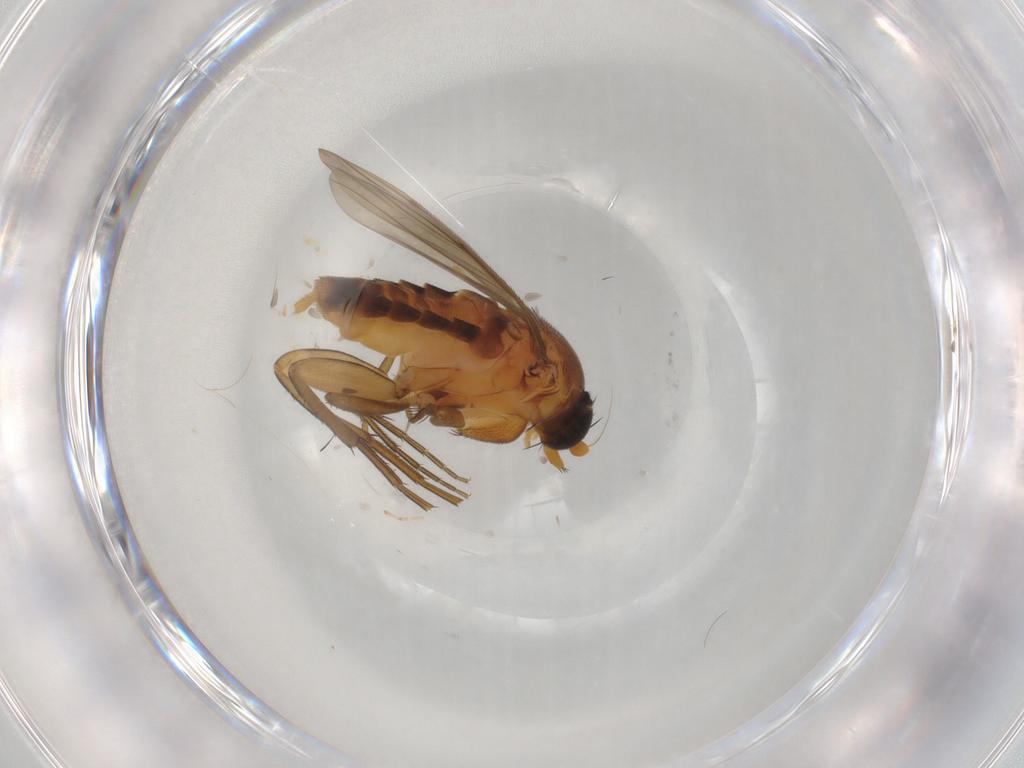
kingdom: Animalia
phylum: Arthropoda
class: Insecta
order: Diptera
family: Cecidomyiidae
